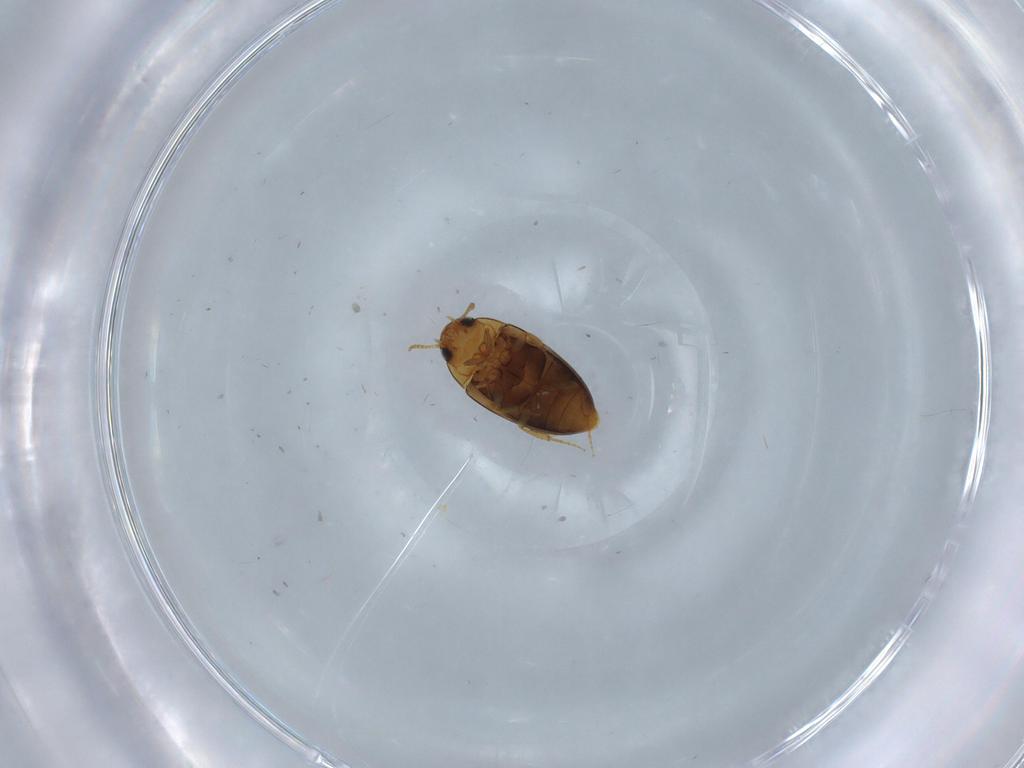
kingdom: Animalia
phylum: Arthropoda
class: Insecta
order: Coleoptera
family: Noteridae
